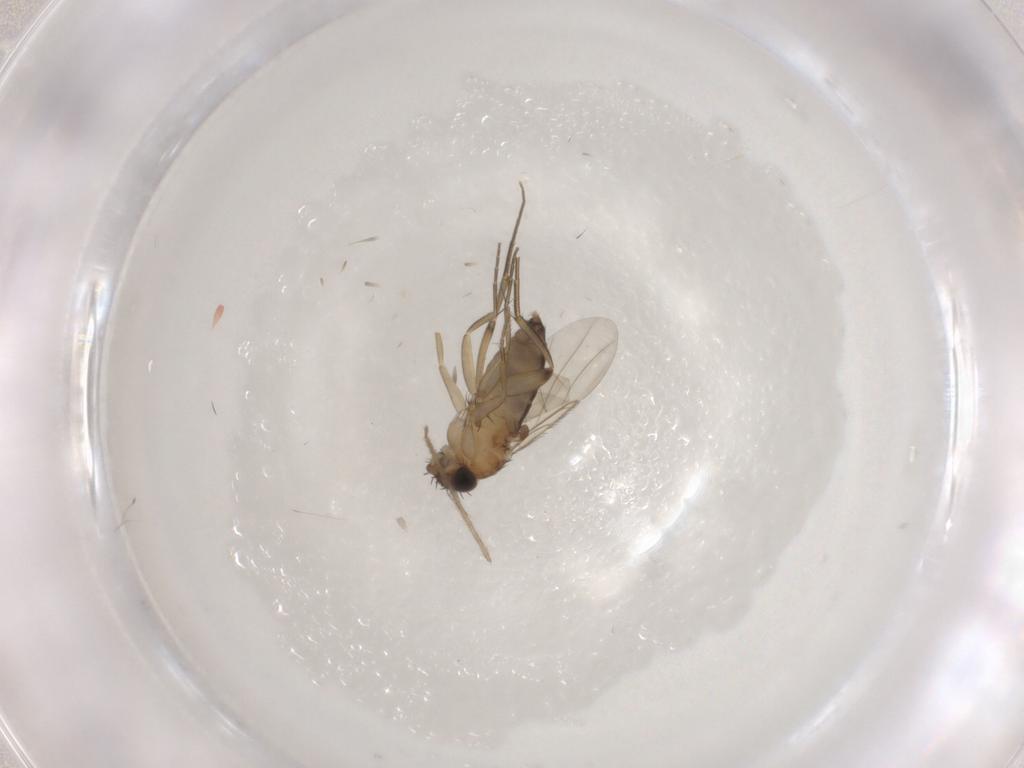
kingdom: Animalia
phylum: Arthropoda
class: Insecta
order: Diptera
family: Phoridae
